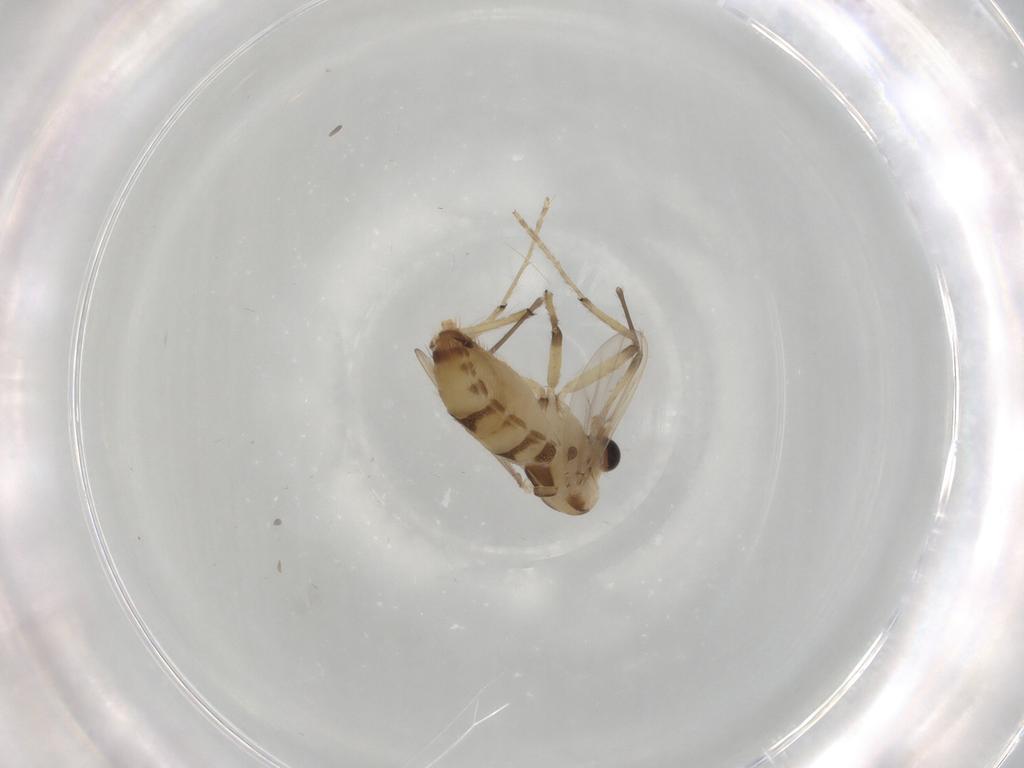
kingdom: Animalia
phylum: Arthropoda
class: Insecta
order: Diptera
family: Chironomidae
